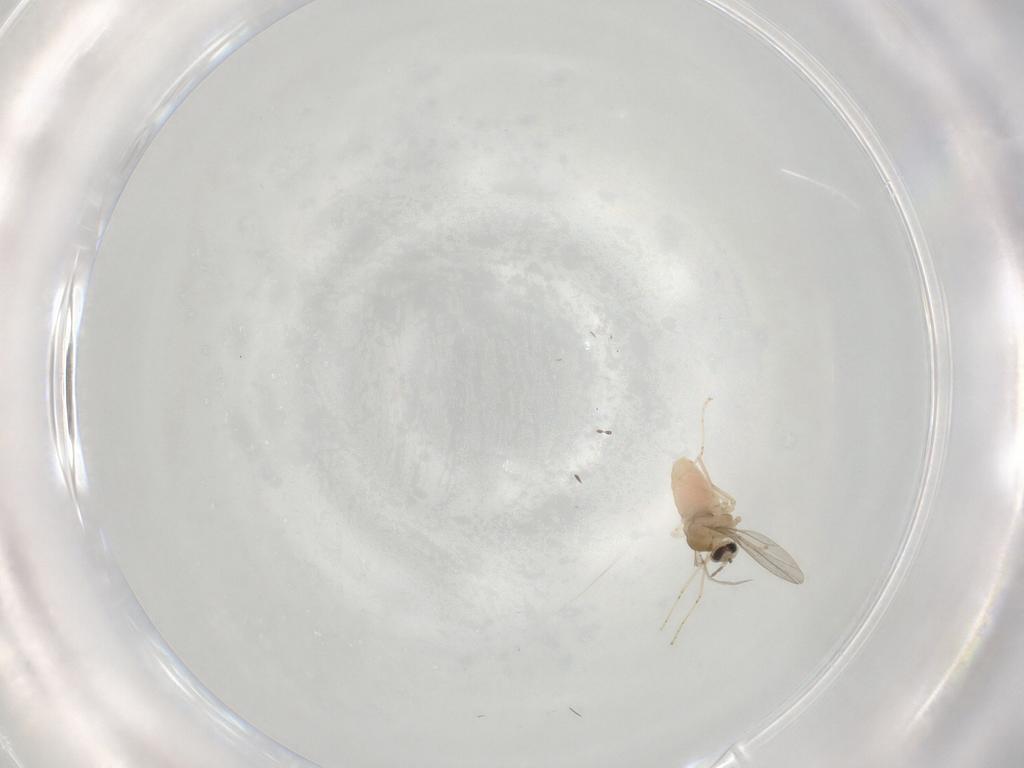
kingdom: Animalia
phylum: Arthropoda
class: Insecta
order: Diptera
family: Cecidomyiidae
